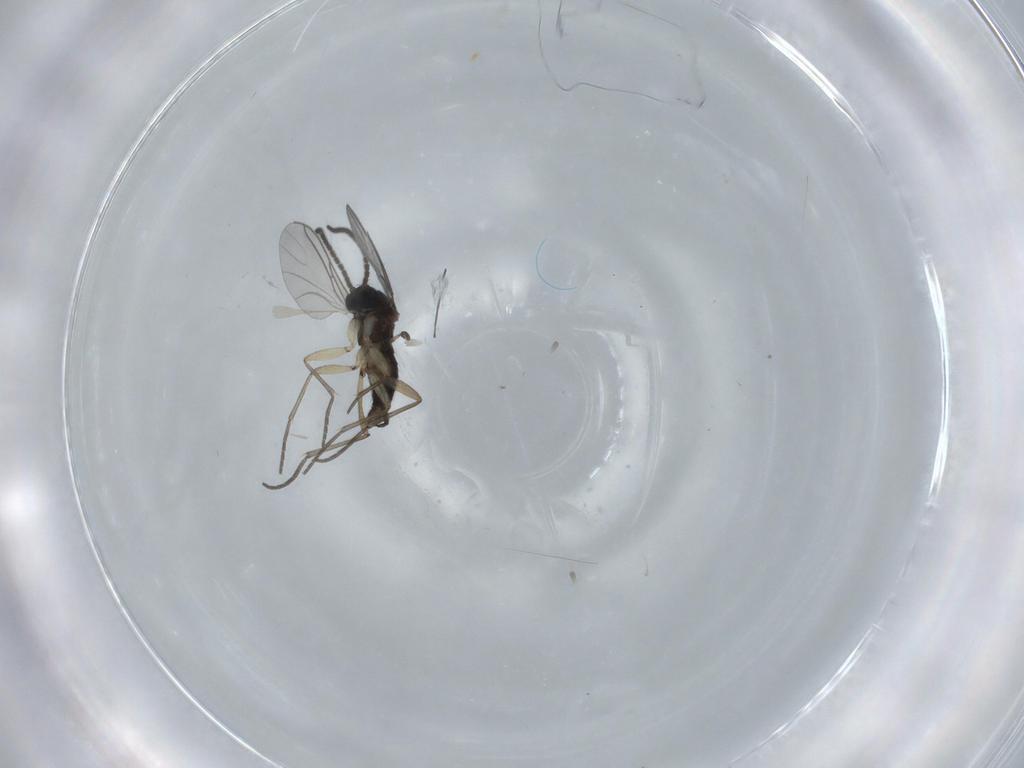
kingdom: Animalia
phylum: Arthropoda
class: Insecta
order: Diptera
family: Sciaridae
